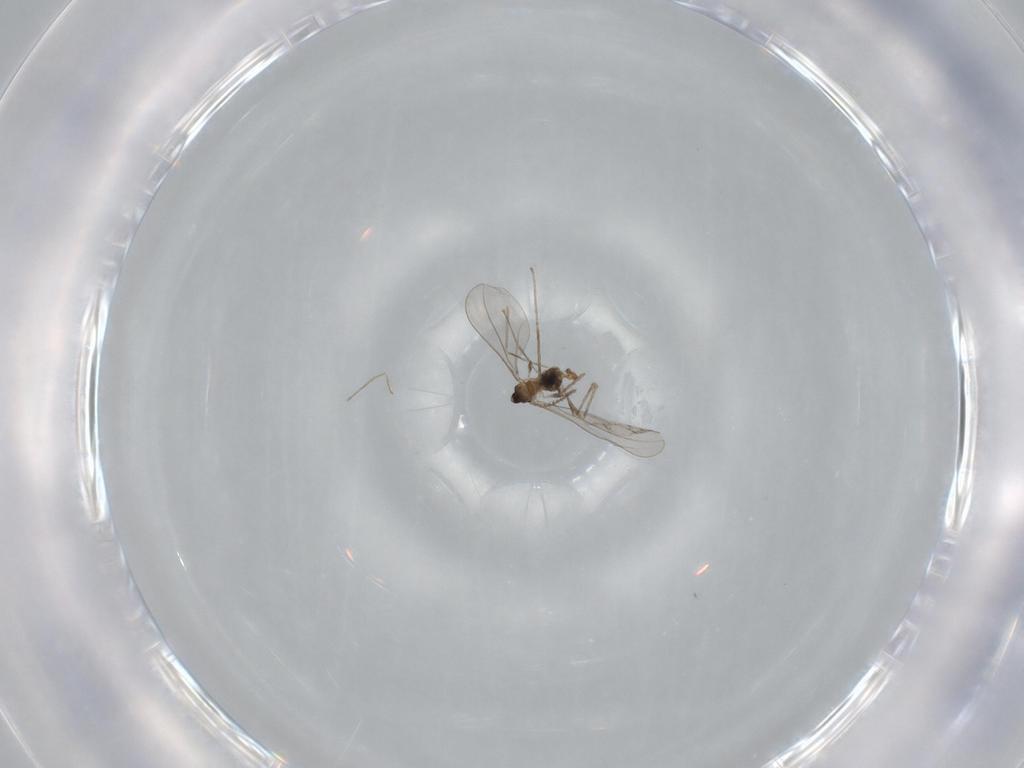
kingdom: Animalia
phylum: Arthropoda
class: Insecta
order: Diptera
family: Cecidomyiidae
